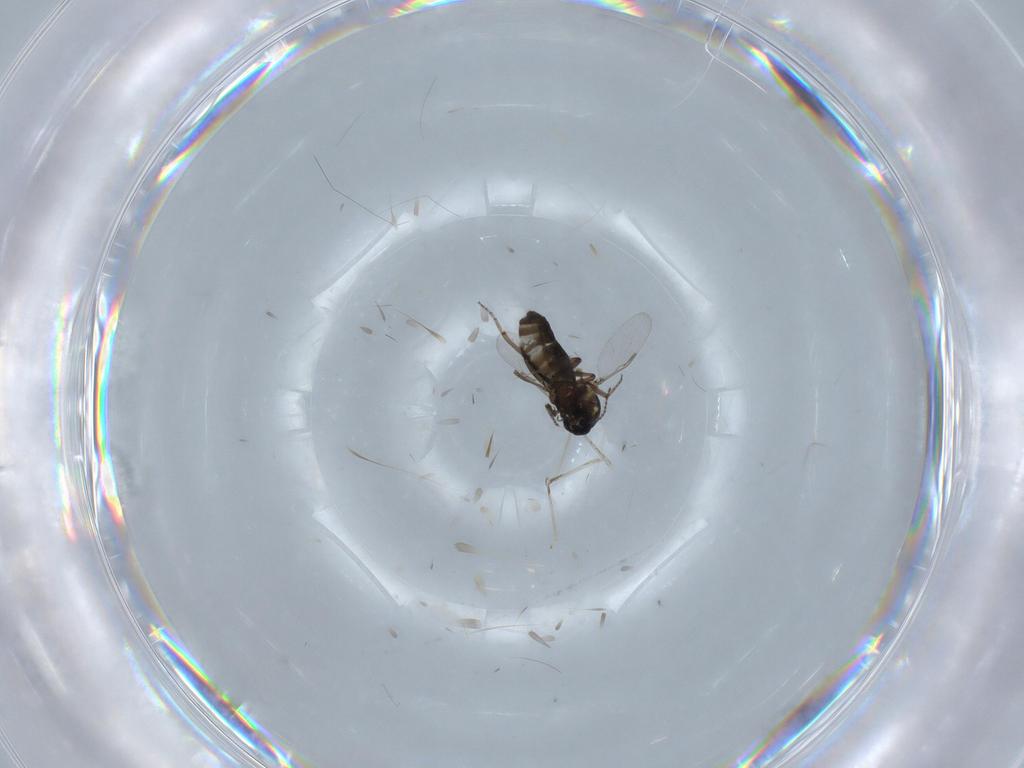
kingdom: Animalia
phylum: Arthropoda
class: Insecta
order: Diptera
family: Ceratopogonidae
